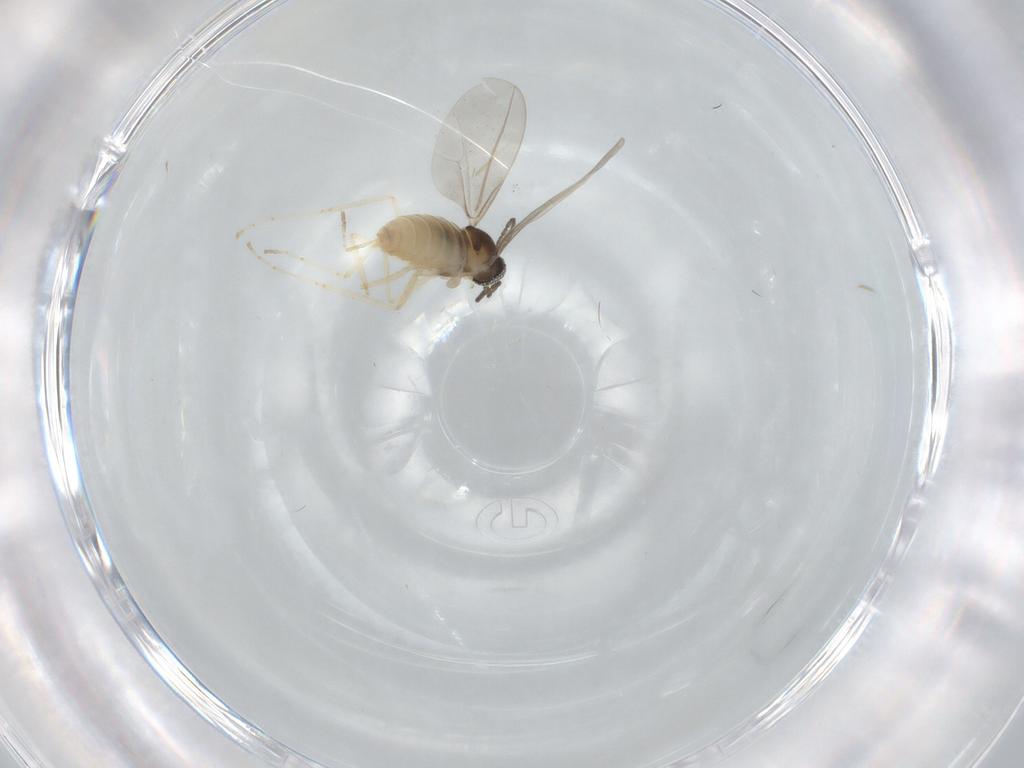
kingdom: Animalia
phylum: Arthropoda
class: Insecta
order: Diptera
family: Cecidomyiidae
